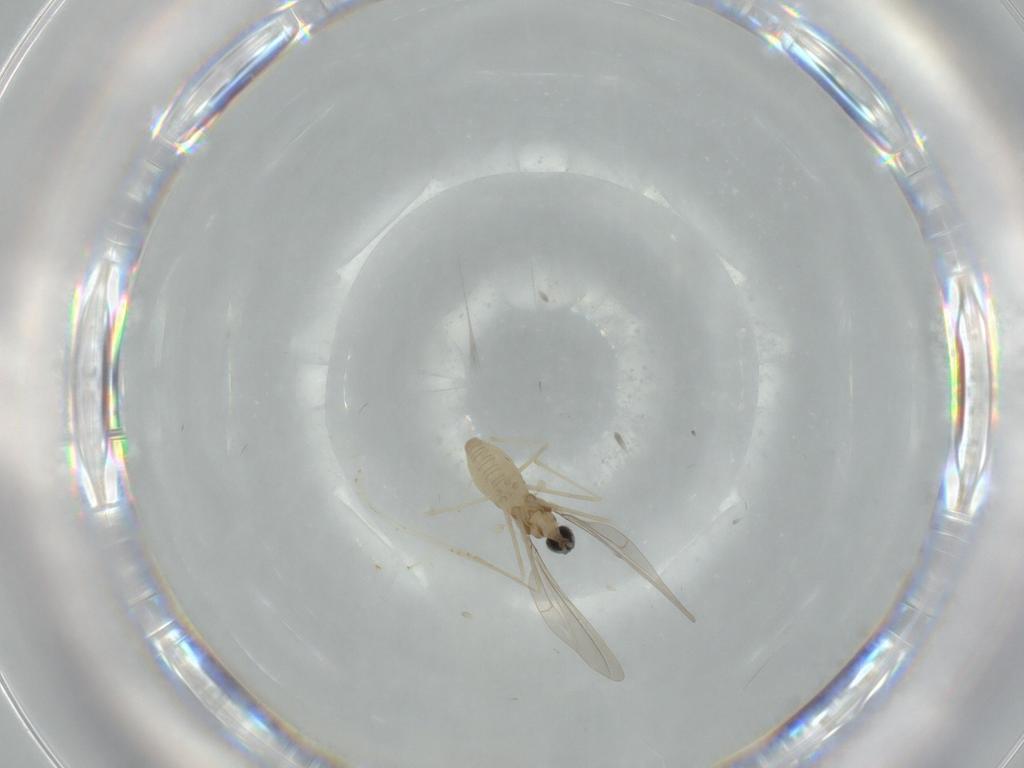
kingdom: Animalia
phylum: Arthropoda
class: Insecta
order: Diptera
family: Cecidomyiidae
